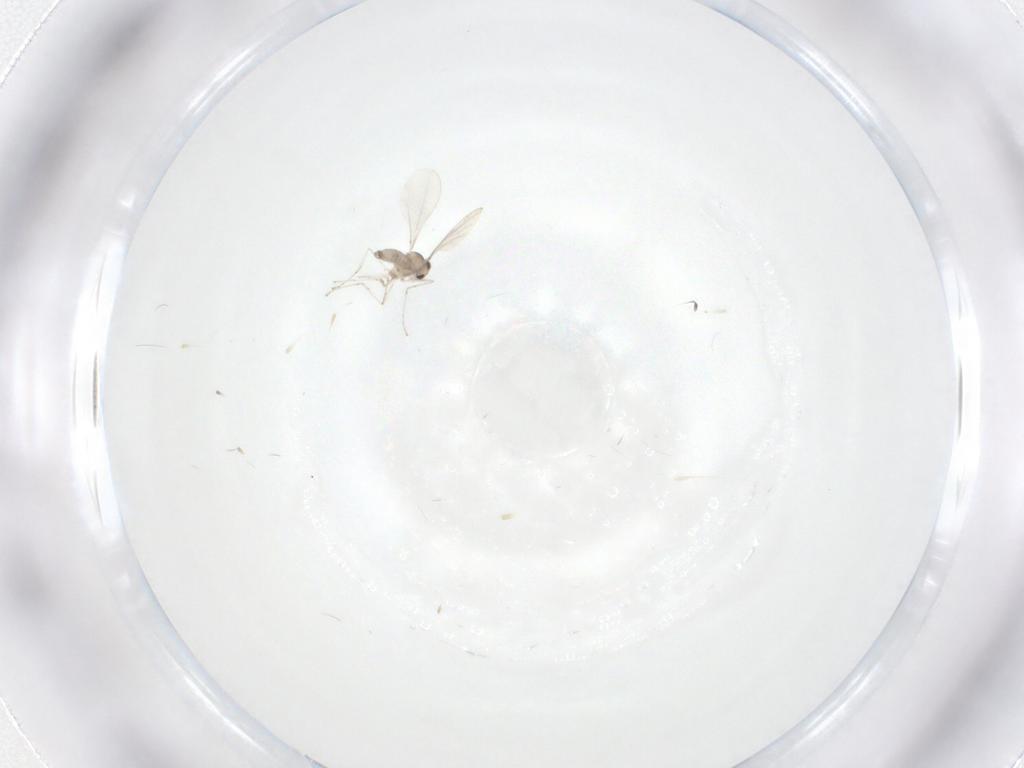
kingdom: Animalia
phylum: Arthropoda
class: Insecta
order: Diptera
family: Cecidomyiidae
